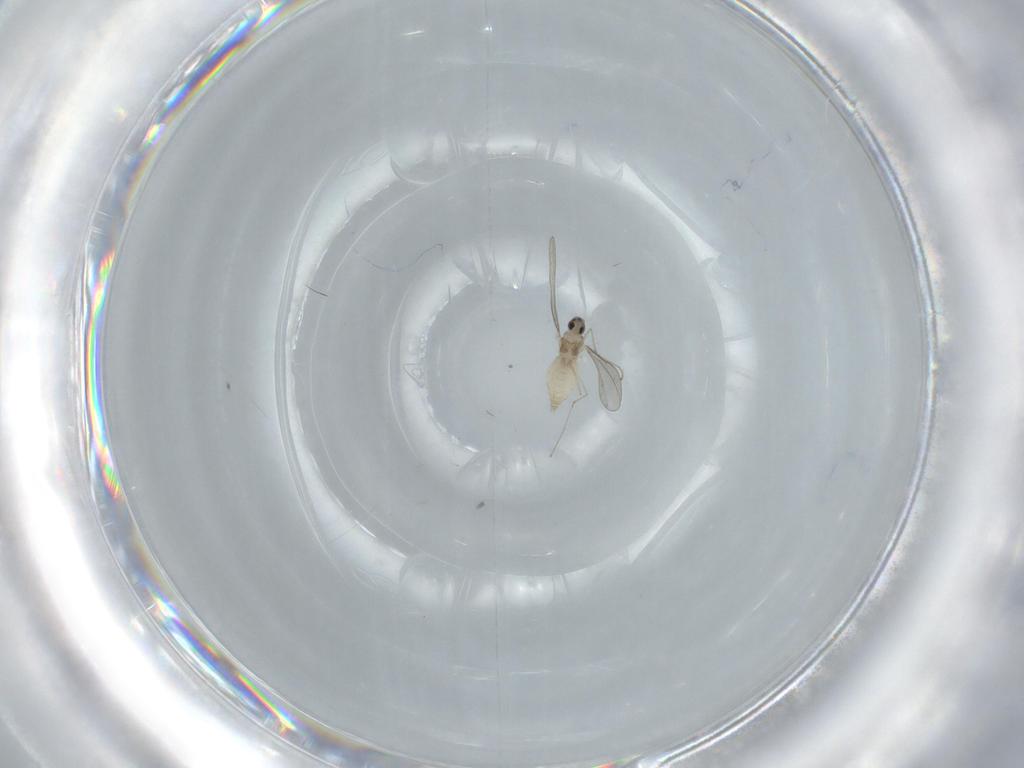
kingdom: Animalia
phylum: Arthropoda
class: Insecta
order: Diptera
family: Cecidomyiidae
